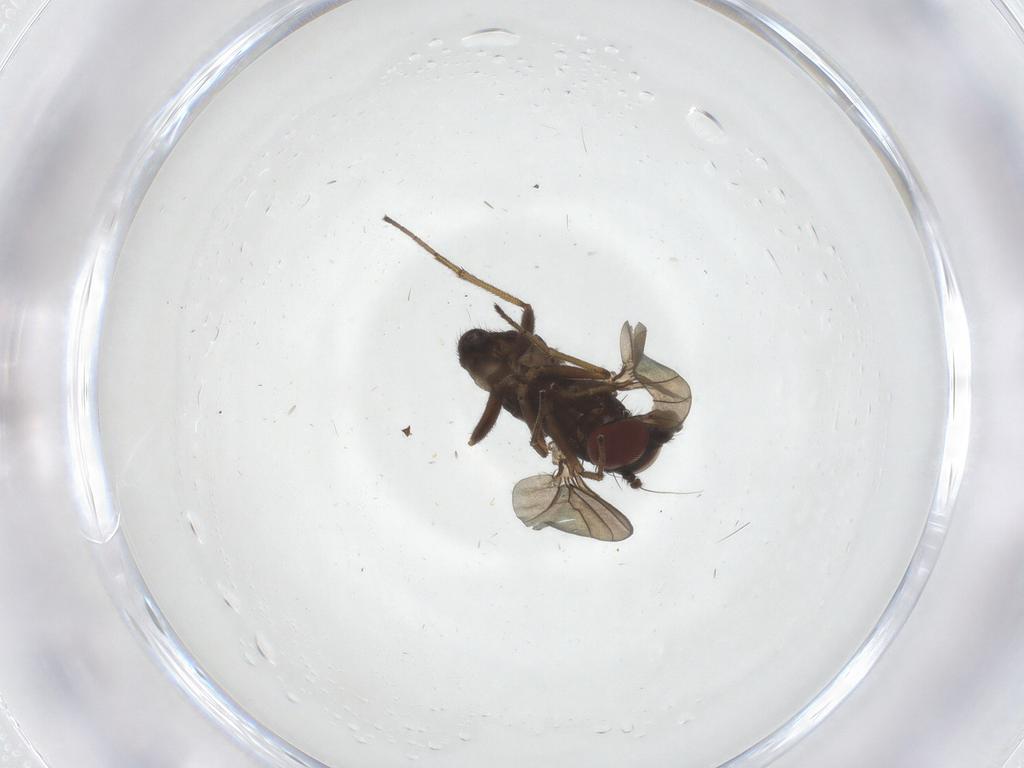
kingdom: Animalia
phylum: Arthropoda
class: Insecta
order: Diptera
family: Dolichopodidae
